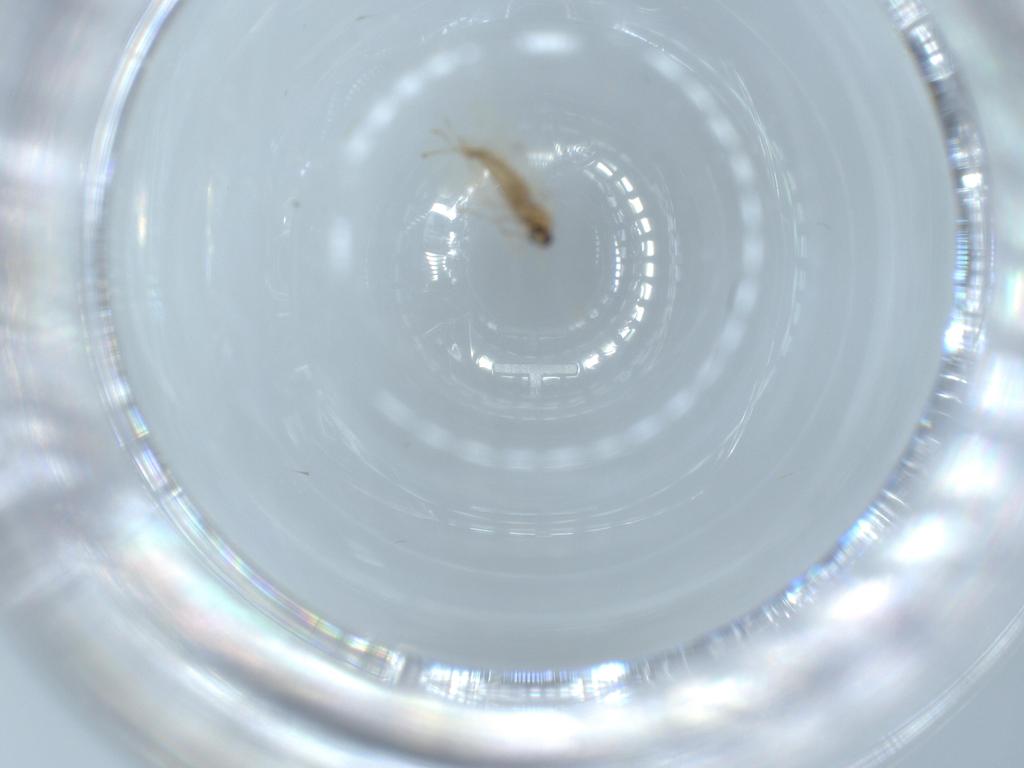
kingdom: Animalia
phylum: Arthropoda
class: Insecta
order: Diptera
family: Cecidomyiidae
